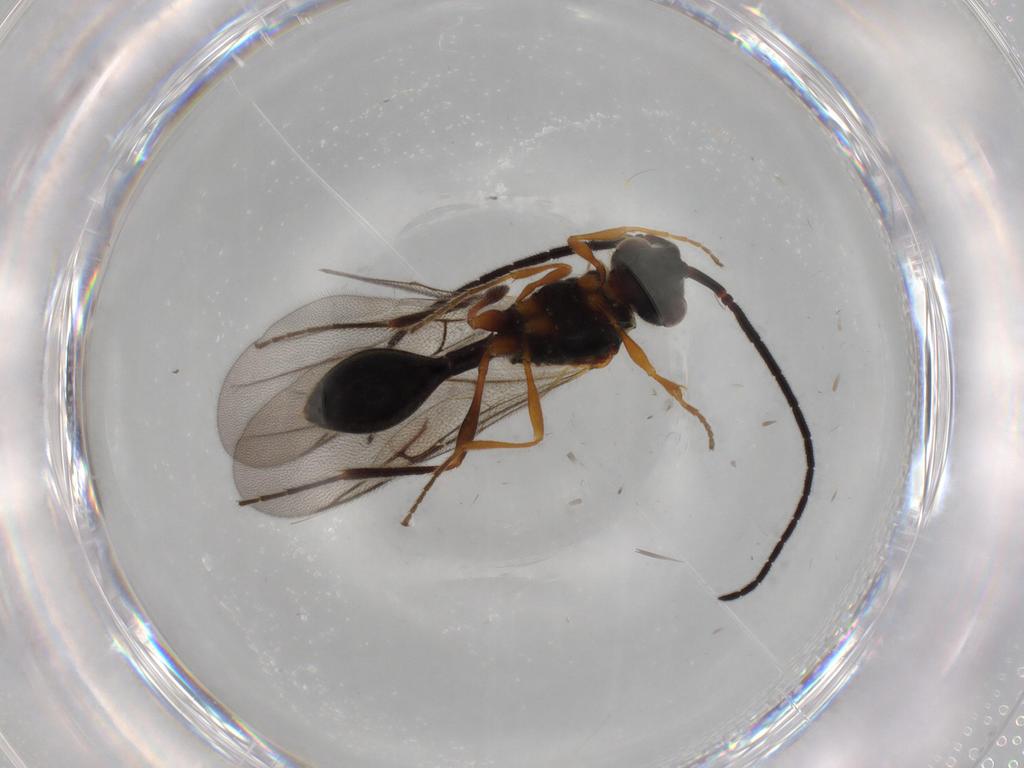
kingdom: Animalia
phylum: Arthropoda
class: Insecta
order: Hymenoptera
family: Diapriidae
